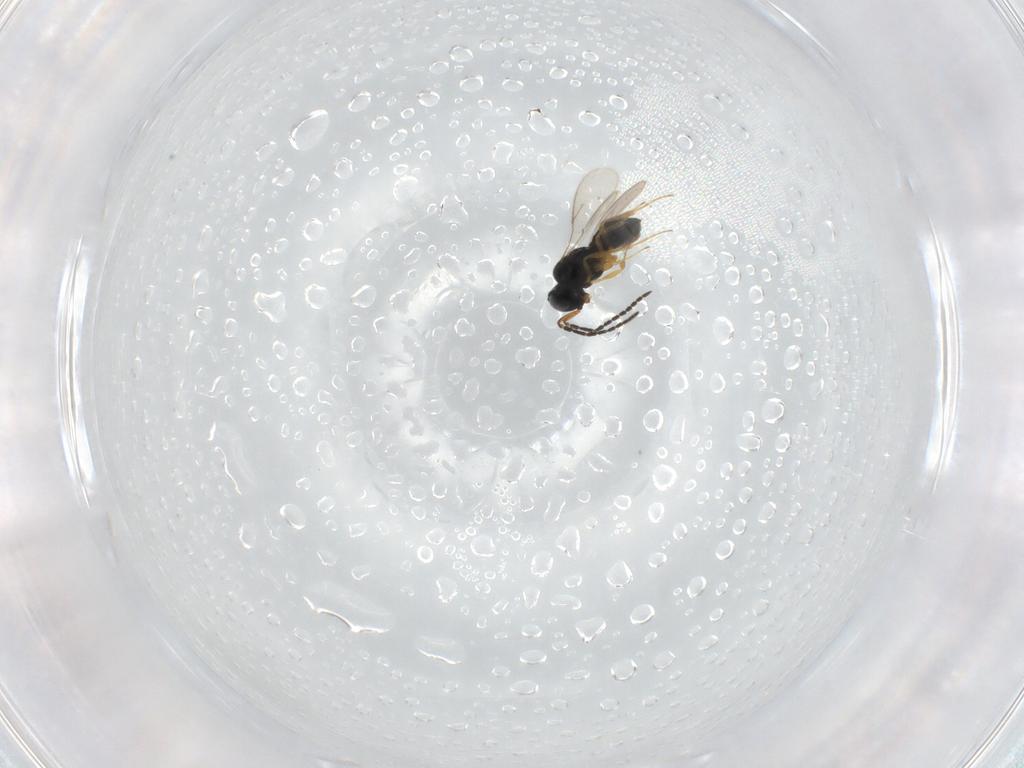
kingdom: Animalia
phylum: Arthropoda
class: Insecta
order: Hymenoptera
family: Scelionidae
